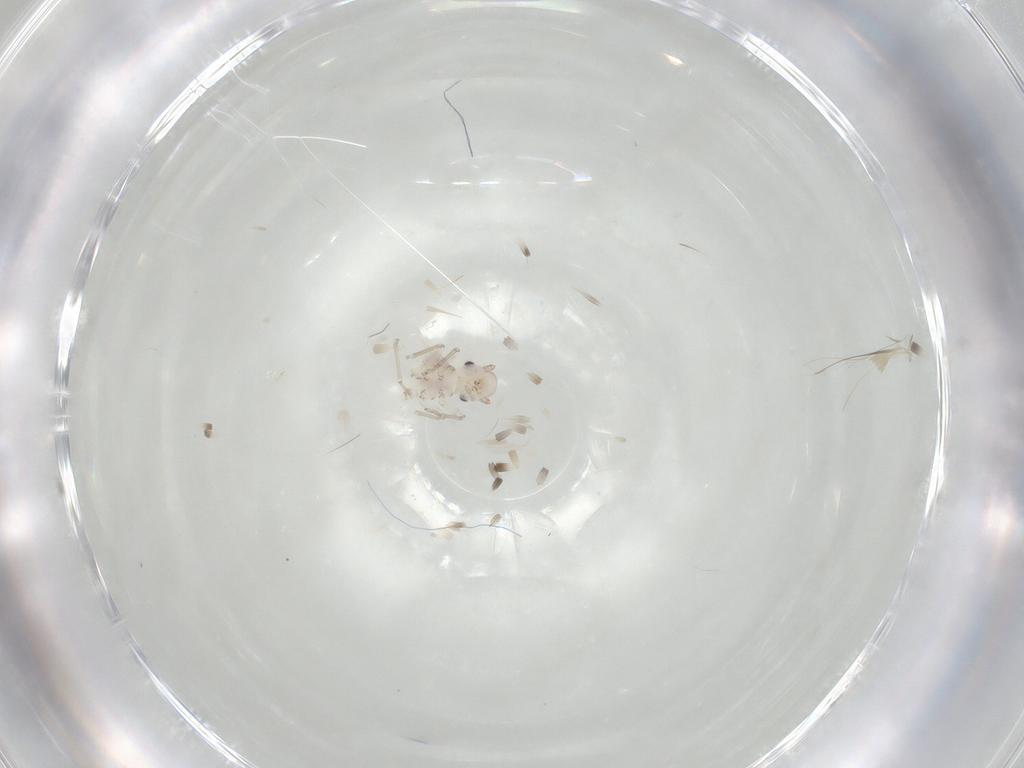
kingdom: Animalia
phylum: Arthropoda
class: Insecta
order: Psocodea
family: Caeciliusidae
